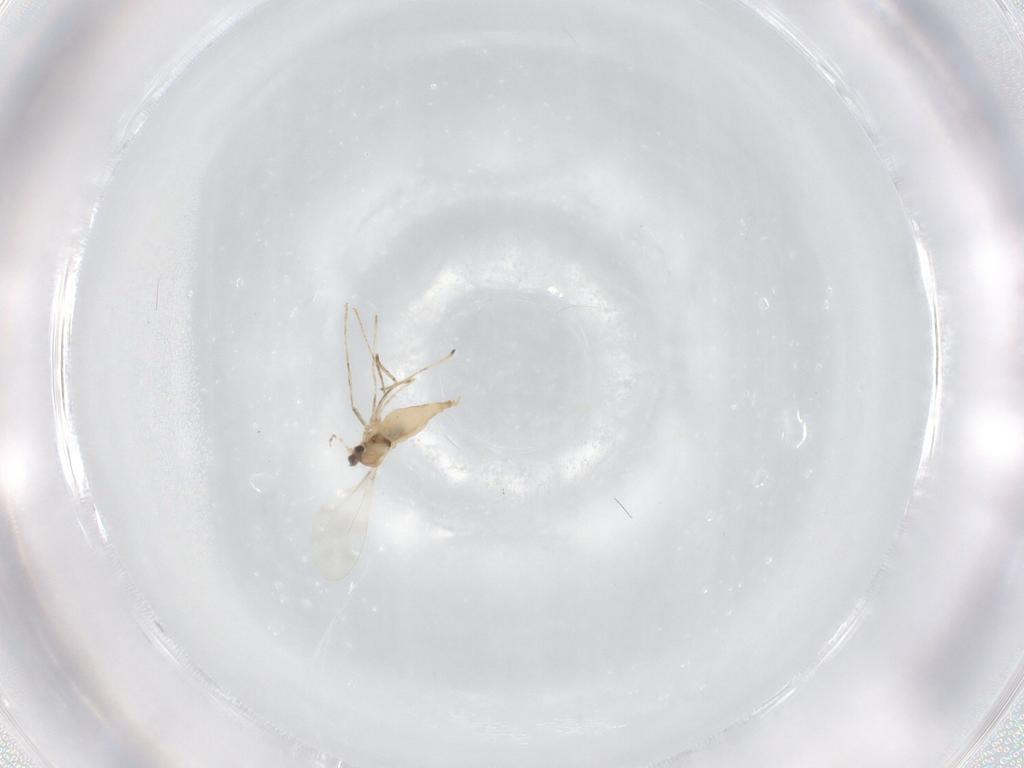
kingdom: Animalia
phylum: Arthropoda
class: Insecta
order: Diptera
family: Cecidomyiidae
